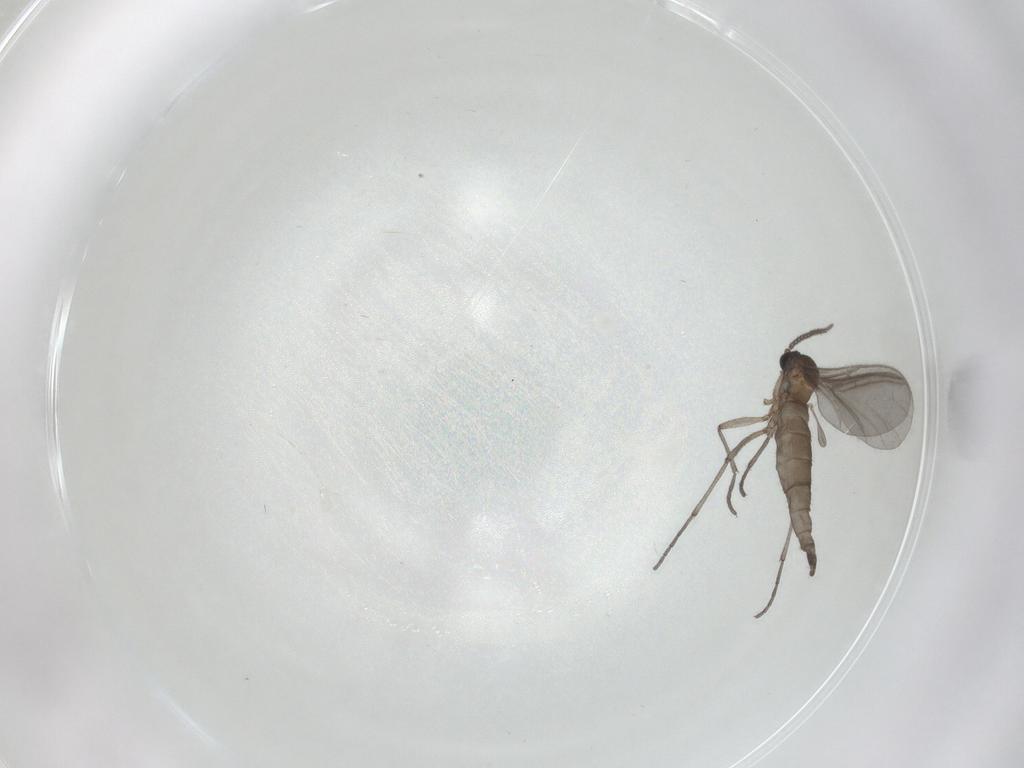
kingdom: Animalia
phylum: Arthropoda
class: Insecta
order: Diptera
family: Sciaridae
